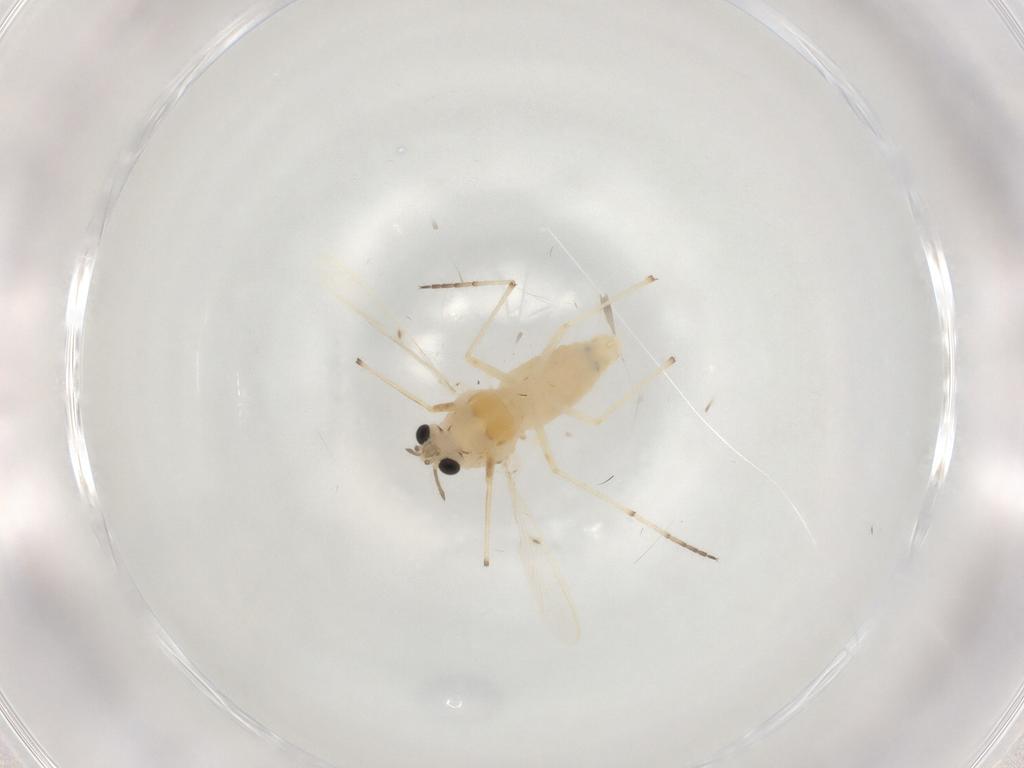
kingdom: Animalia
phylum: Arthropoda
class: Insecta
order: Diptera
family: Chironomidae
